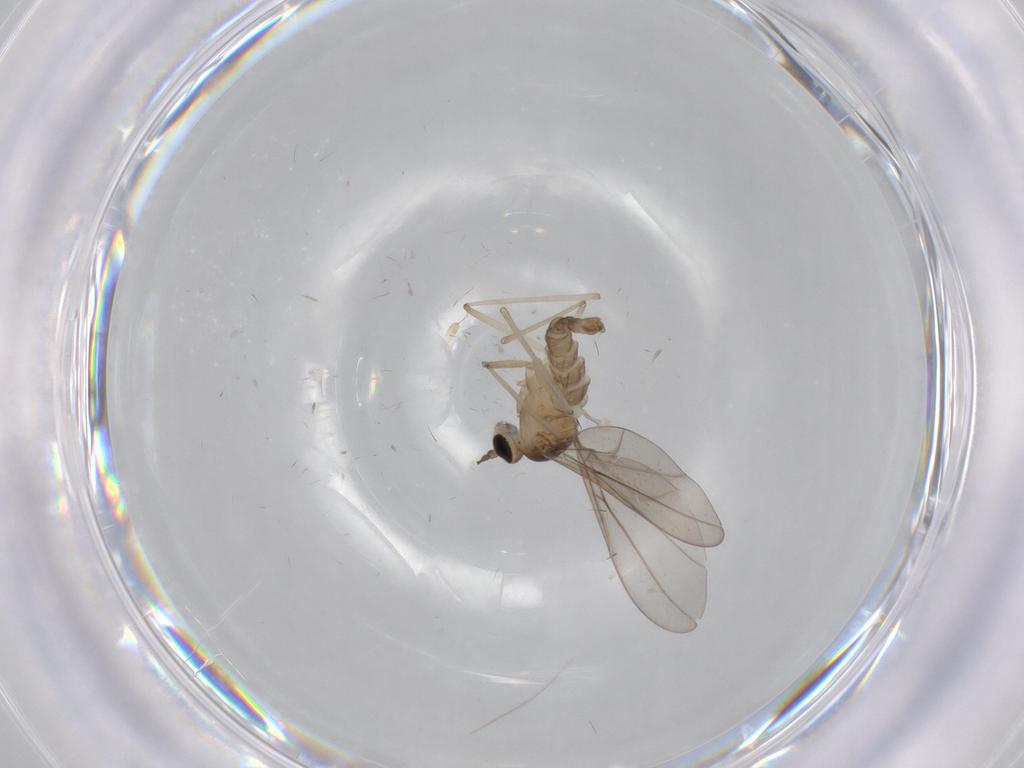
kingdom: Animalia
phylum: Arthropoda
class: Insecta
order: Diptera
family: Cecidomyiidae
